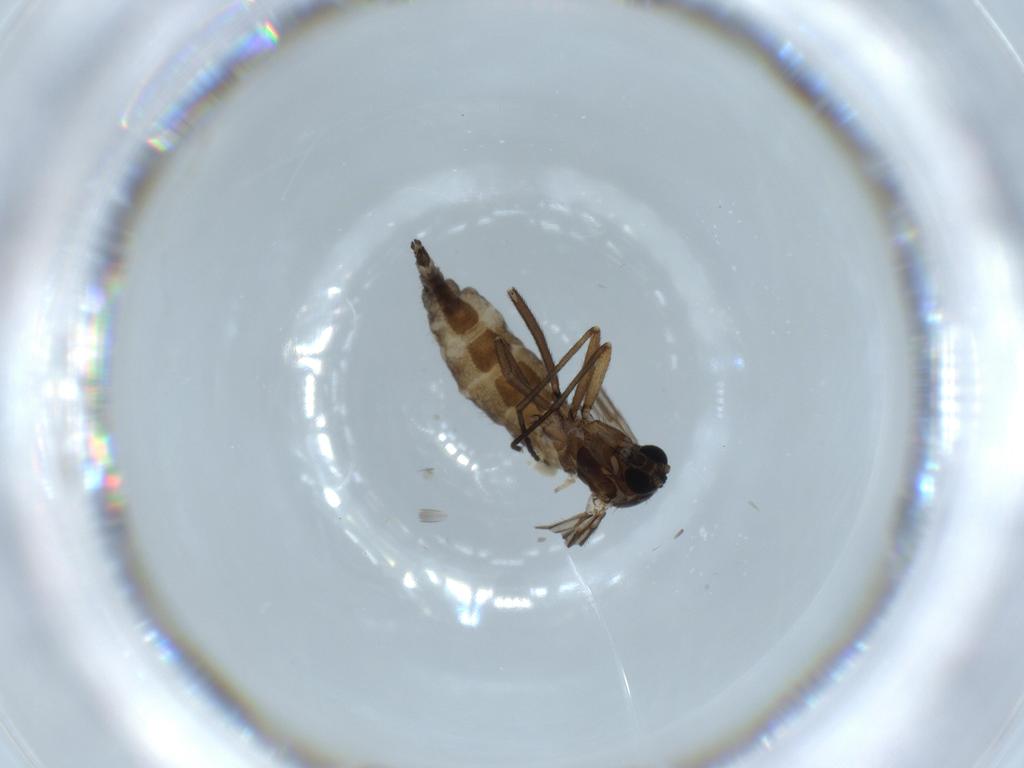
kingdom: Animalia
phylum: Arthropoda
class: Insecta
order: Diptera
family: Sciaridae
